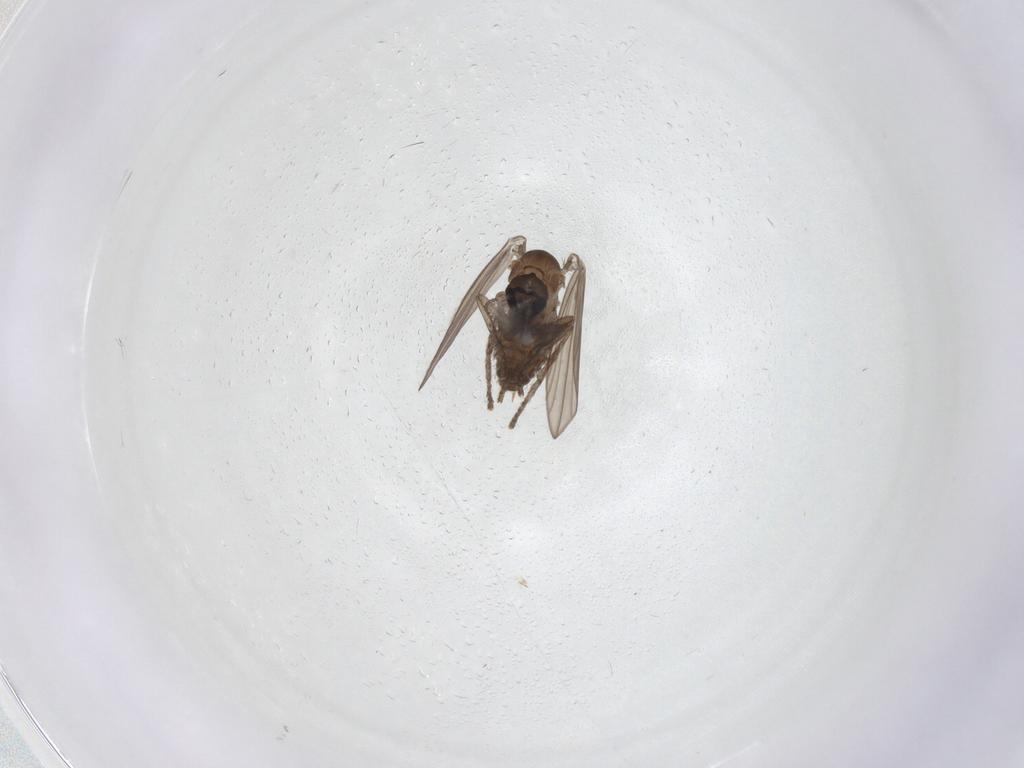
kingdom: Animalia
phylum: Arthropoda
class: Insecta
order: Diptera
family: Psychodidae
